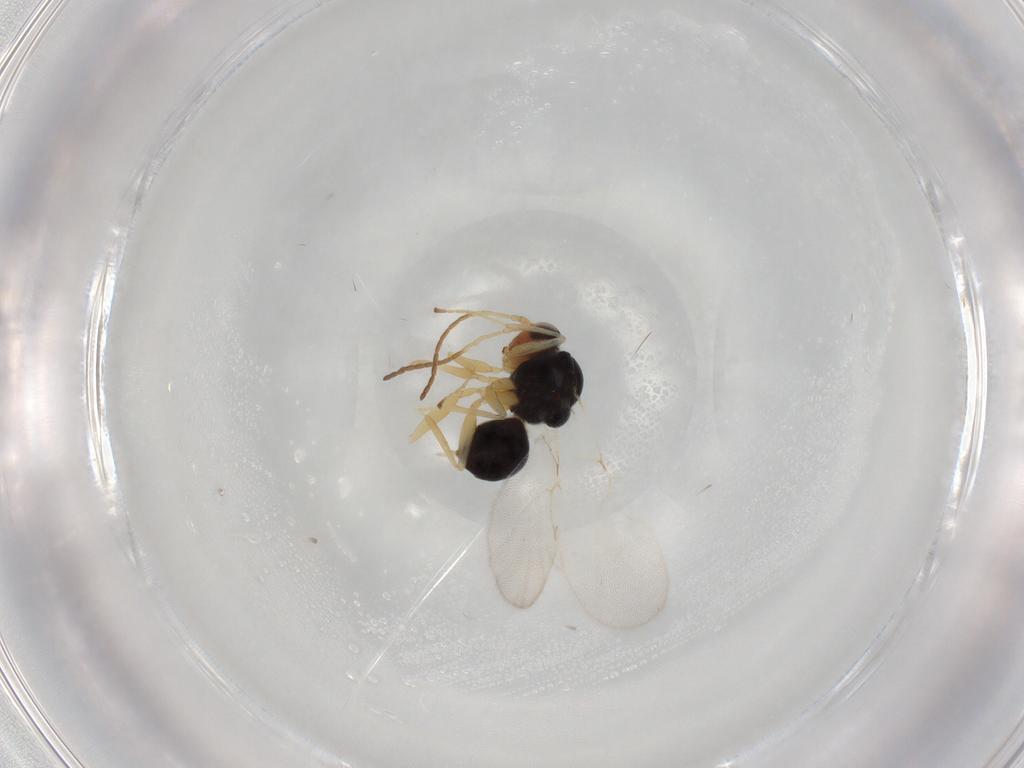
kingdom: Animalia
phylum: Arthropoda
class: Insecta
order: Hymenoptera
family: Figitidae
